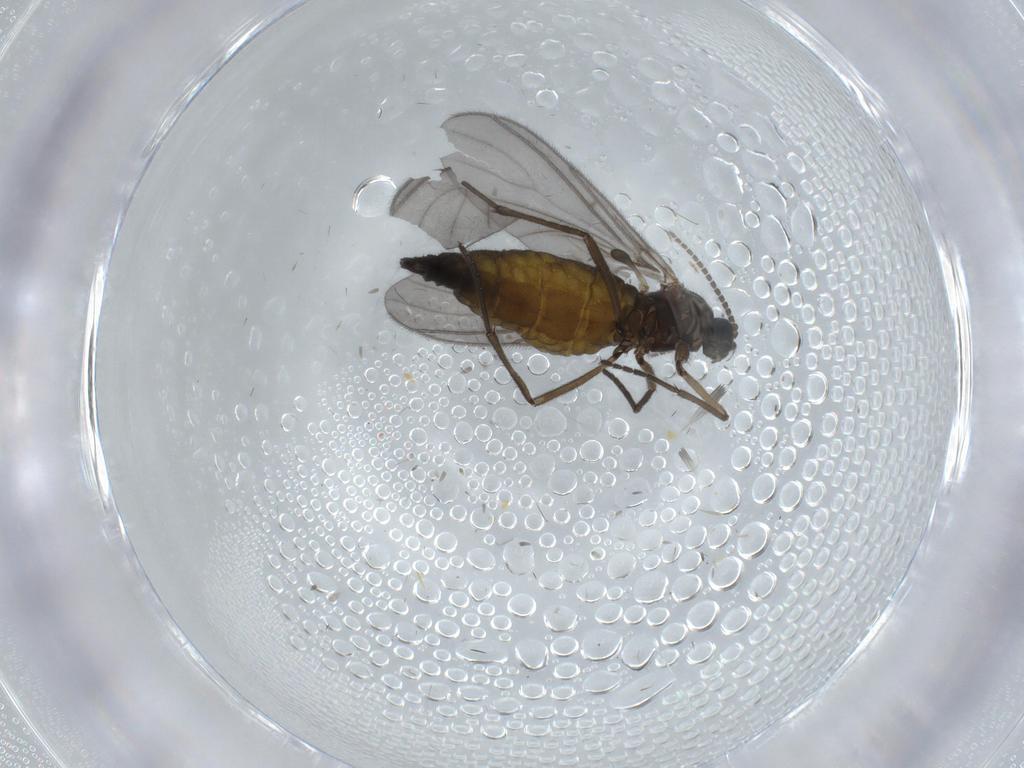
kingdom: Animalia
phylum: Arthropoda
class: Insecta
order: Diptera
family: Sciaridae
